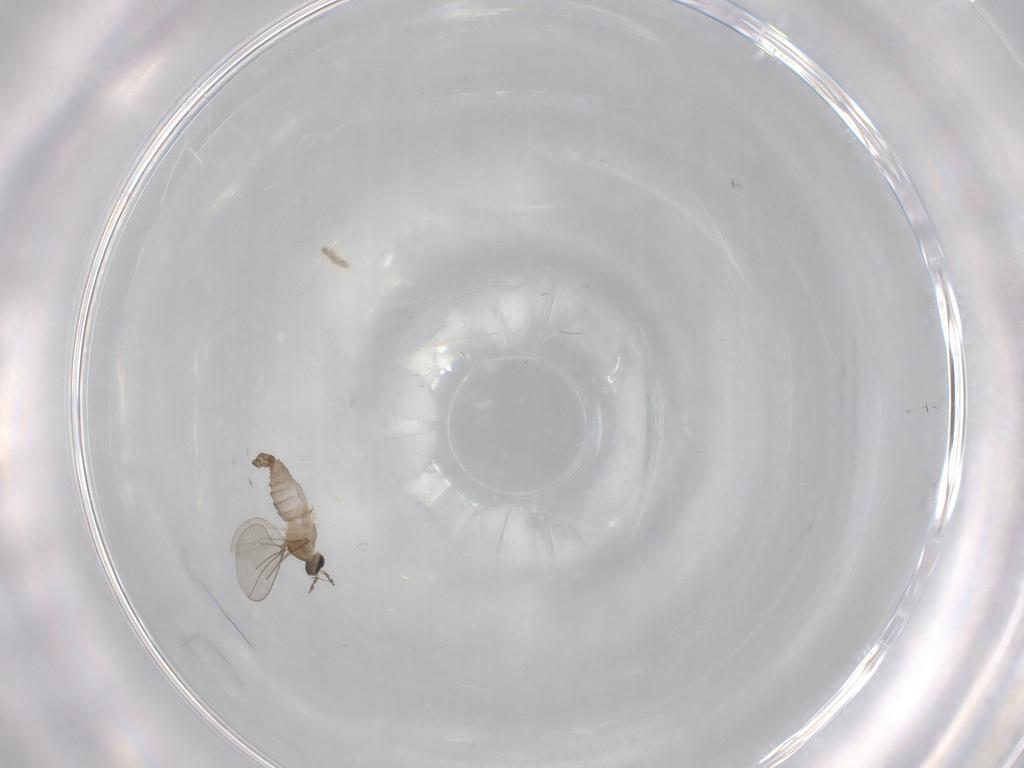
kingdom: Animalia
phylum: Arthropoda
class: Insecta
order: Diptera
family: Cecidomyiidae
